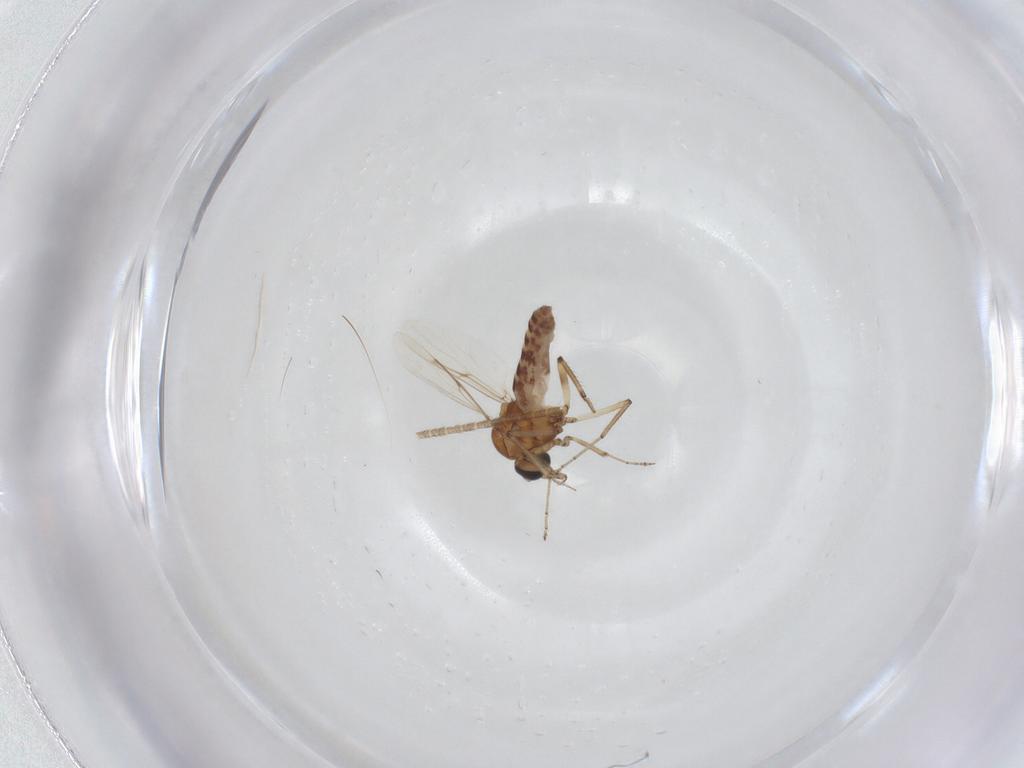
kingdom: Animalia
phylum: Arthropoda
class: Insecta
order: Diptera
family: Ceratopogonidae
